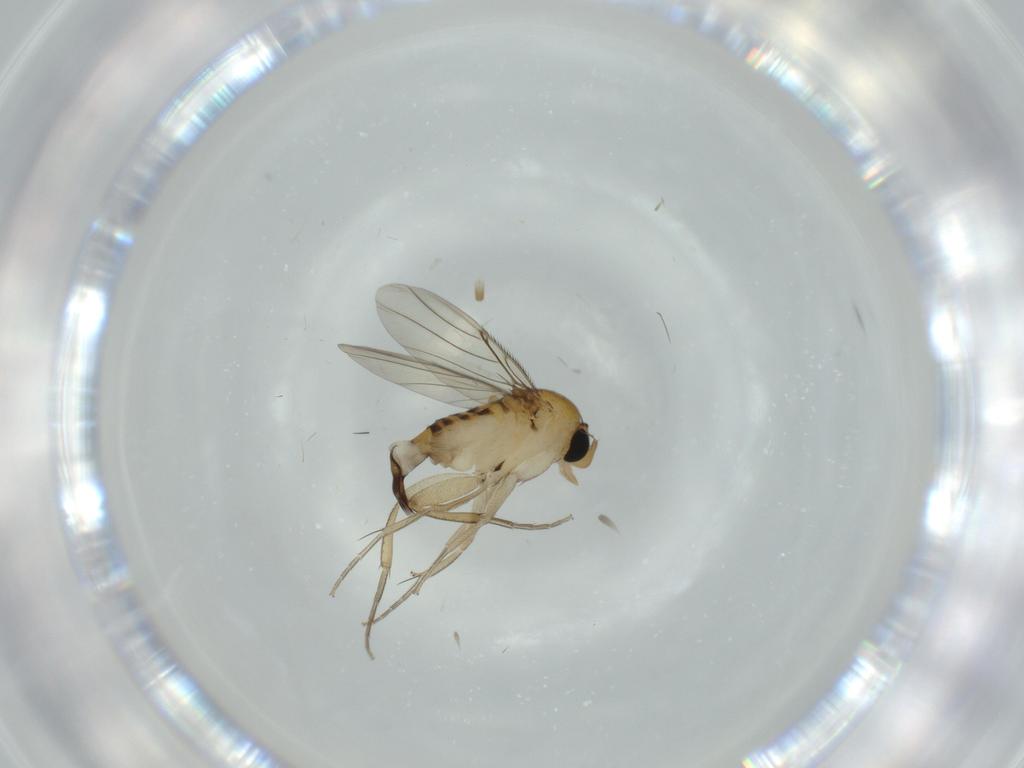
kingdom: Animalia
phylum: Arthropoda
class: Insecta
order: Diptera
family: Phoridae
